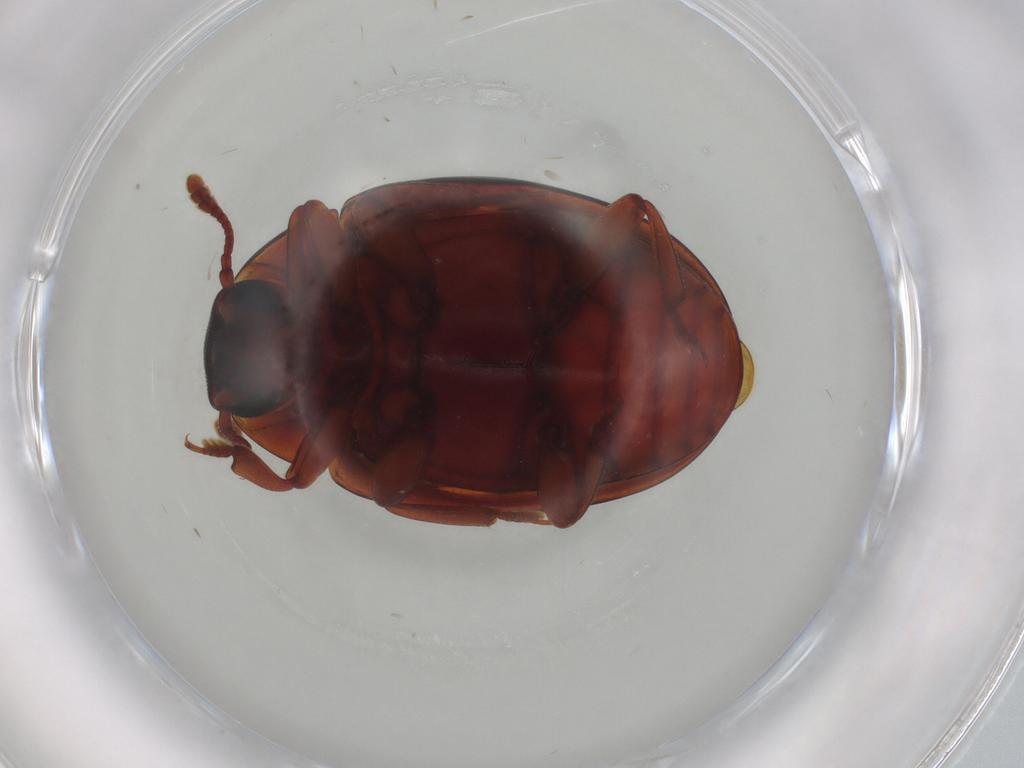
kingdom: Animalia
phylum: Arthropoda
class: Insecta
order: Coleoptera
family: Zopheridae
